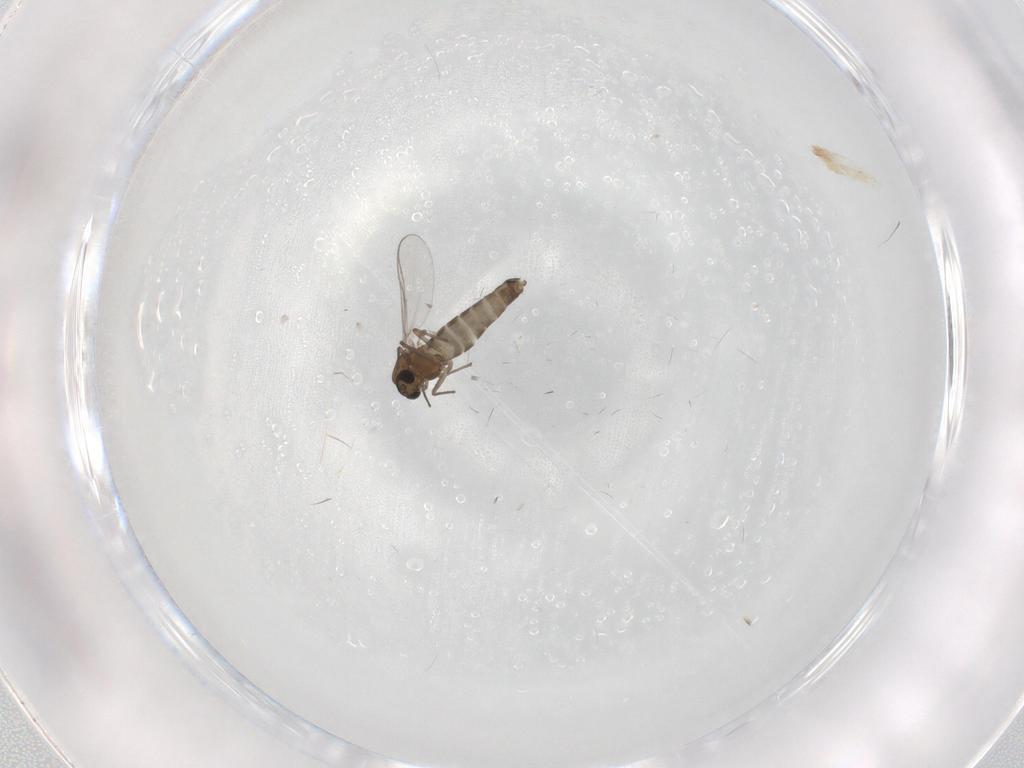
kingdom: Animalia
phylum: Arthropoda
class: Insecta
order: Diptera
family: Chironomidae
